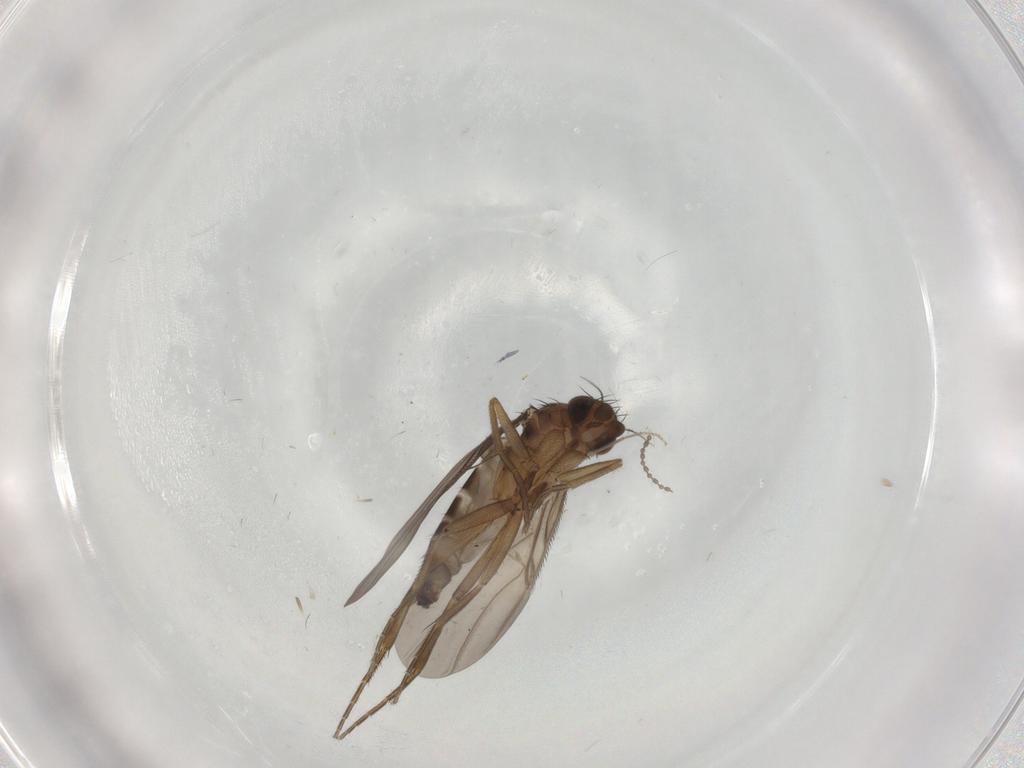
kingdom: Animalia
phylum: Arthropoda
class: Insecta
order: Diptera
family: Phoridae
